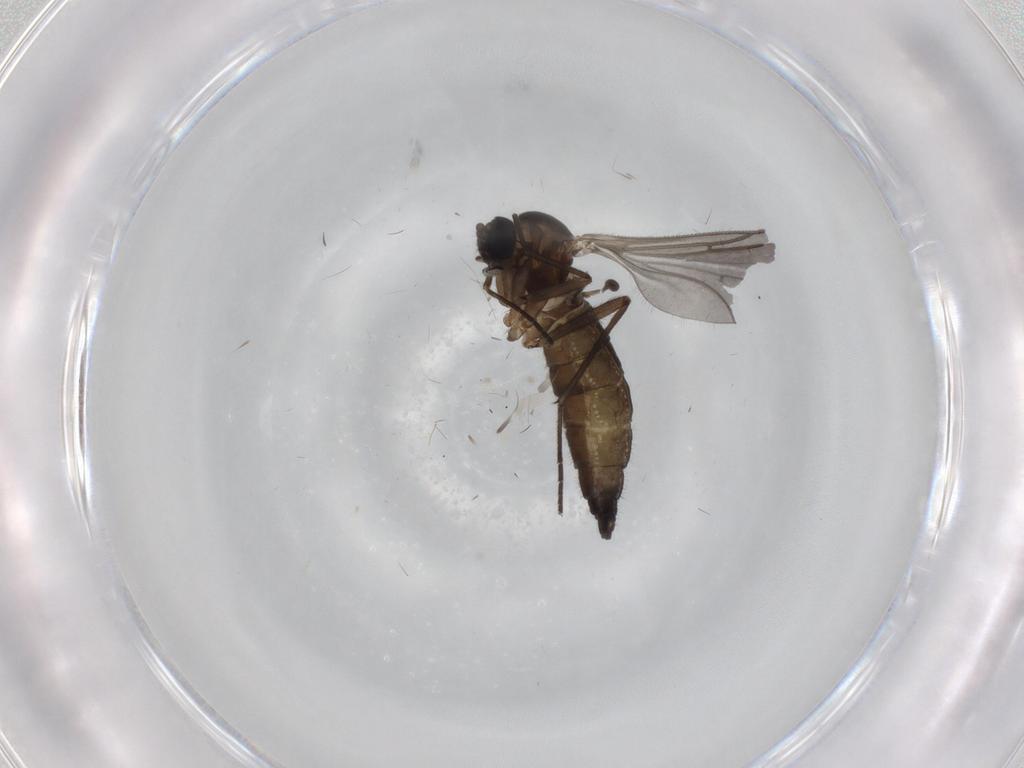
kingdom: Animalia
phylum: Arthropoda
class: Insecta
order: Diptera
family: Sciaridae
